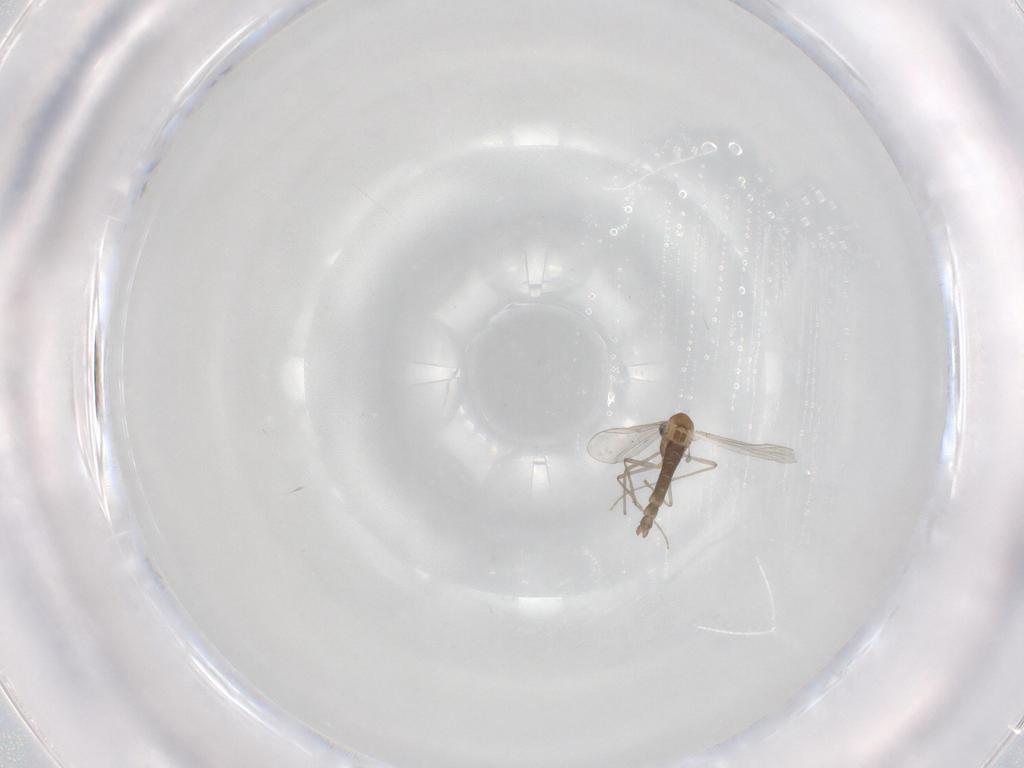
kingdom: Animalia
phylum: Arthropoda
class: Insecta
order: Diptera
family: Chironomidae
